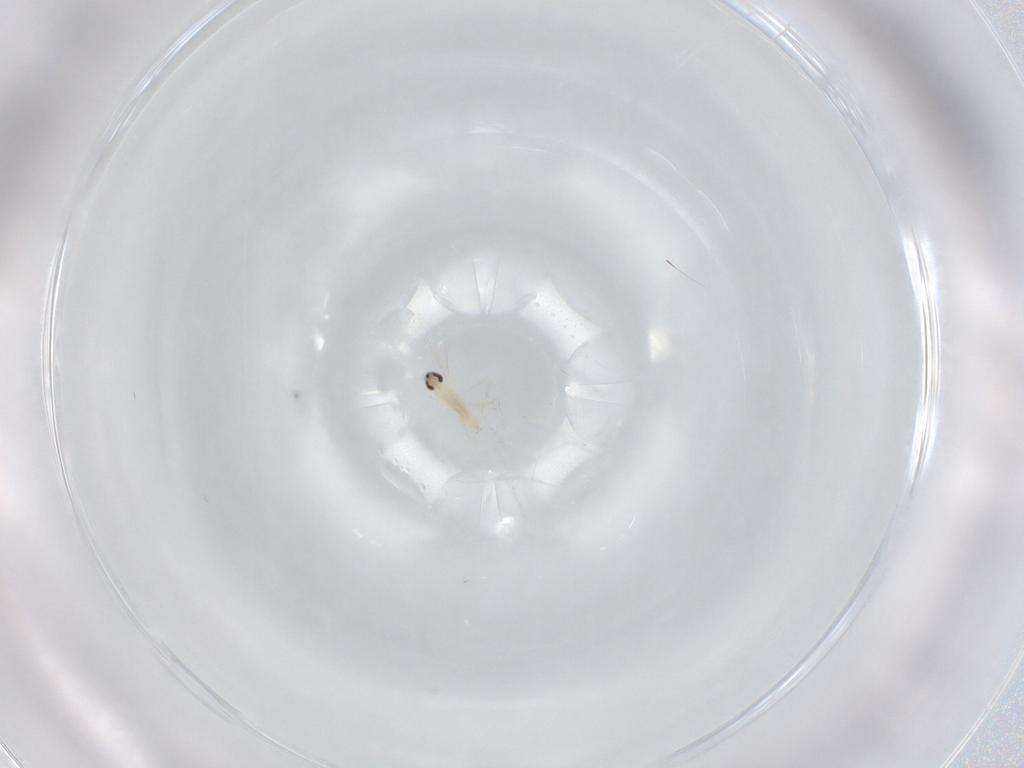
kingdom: Animalia
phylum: Arthropoda
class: Insecta
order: Diptera
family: Cecidomyiidae
